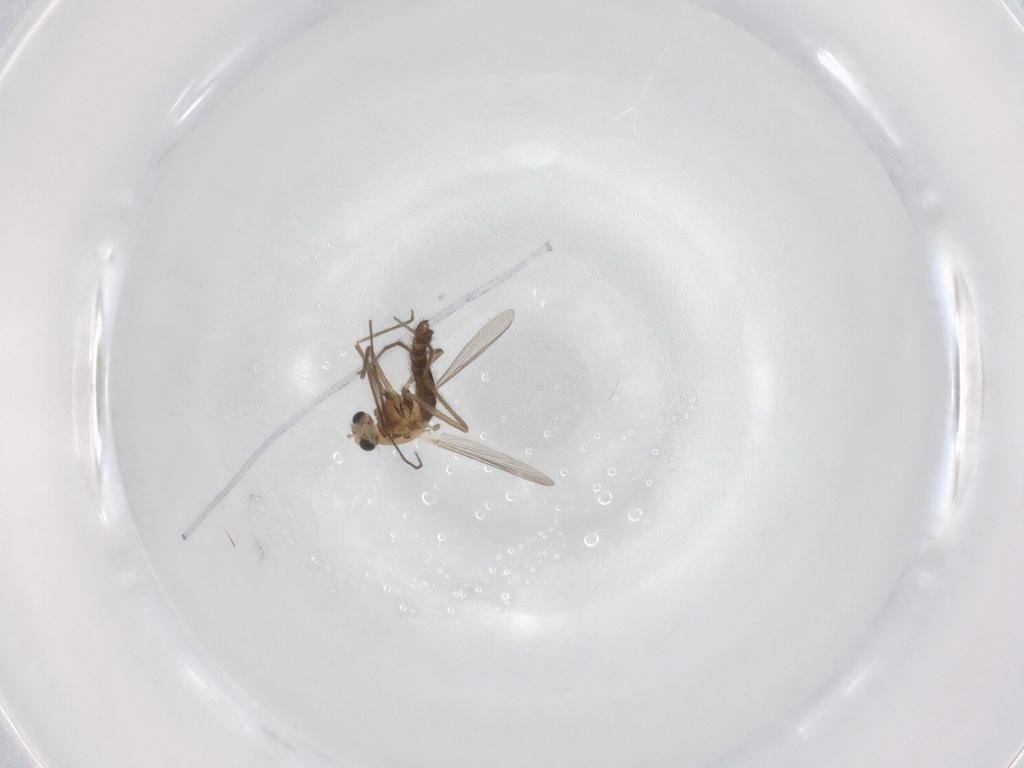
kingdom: Animalia
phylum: Arthropoda
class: Insecta
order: Diptera
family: Chironomidae
